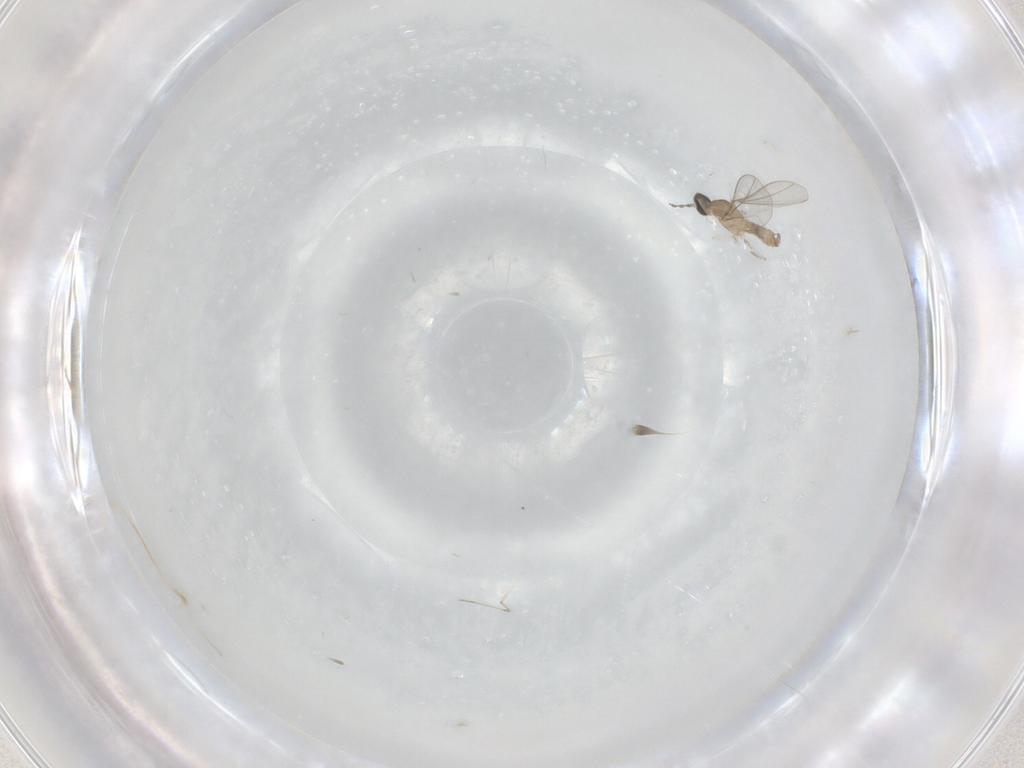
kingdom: Animalia
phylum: Arthropoda
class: Insecta
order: Diptera
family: Cecidomyiidae
